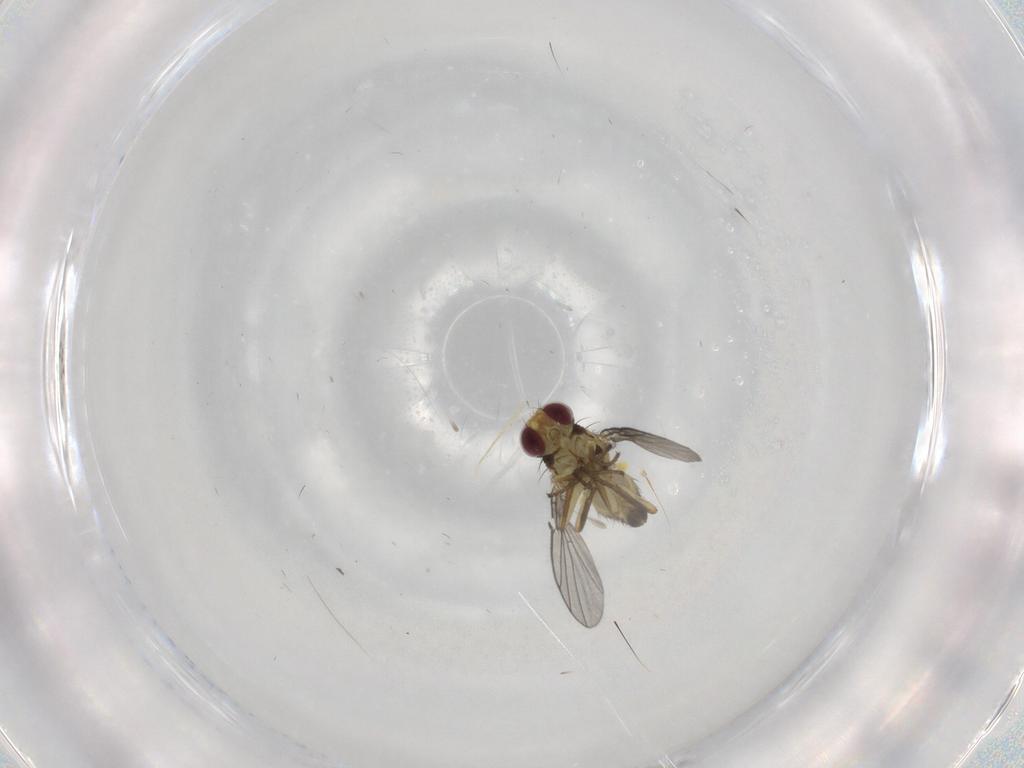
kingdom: Animalia
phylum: Arthropoda
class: Insecta
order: Diptera
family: Agromyzidae
